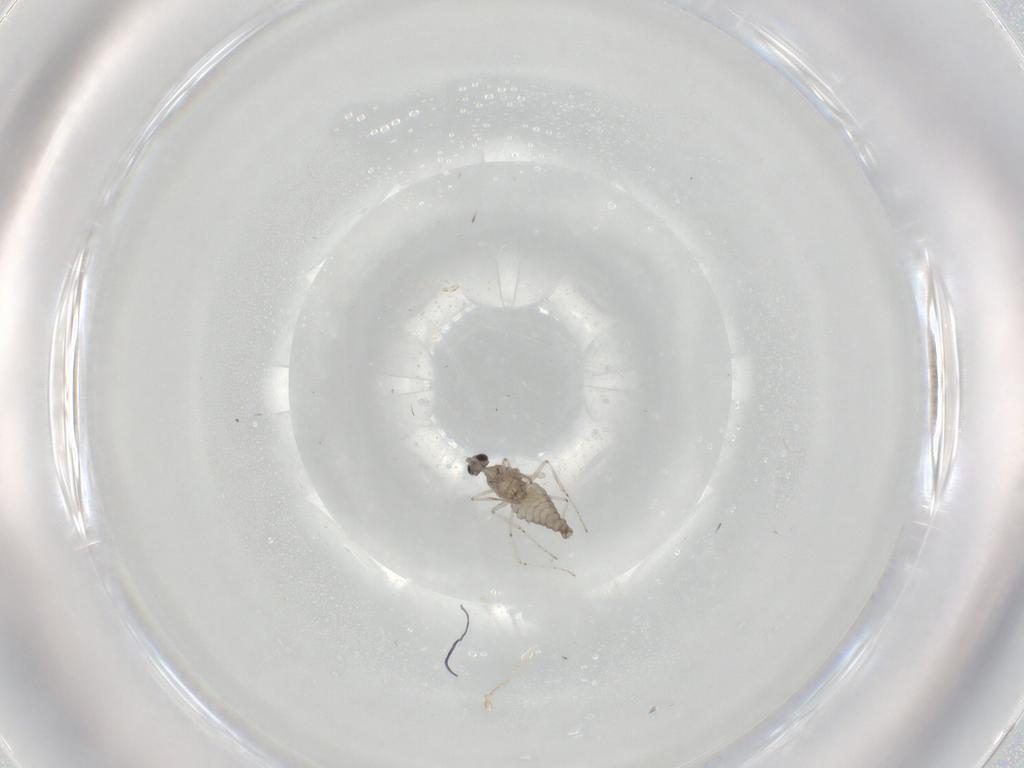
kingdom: Animalia
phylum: Arthropoda
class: Insecta
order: Diptera
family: Cecidomyiidae
